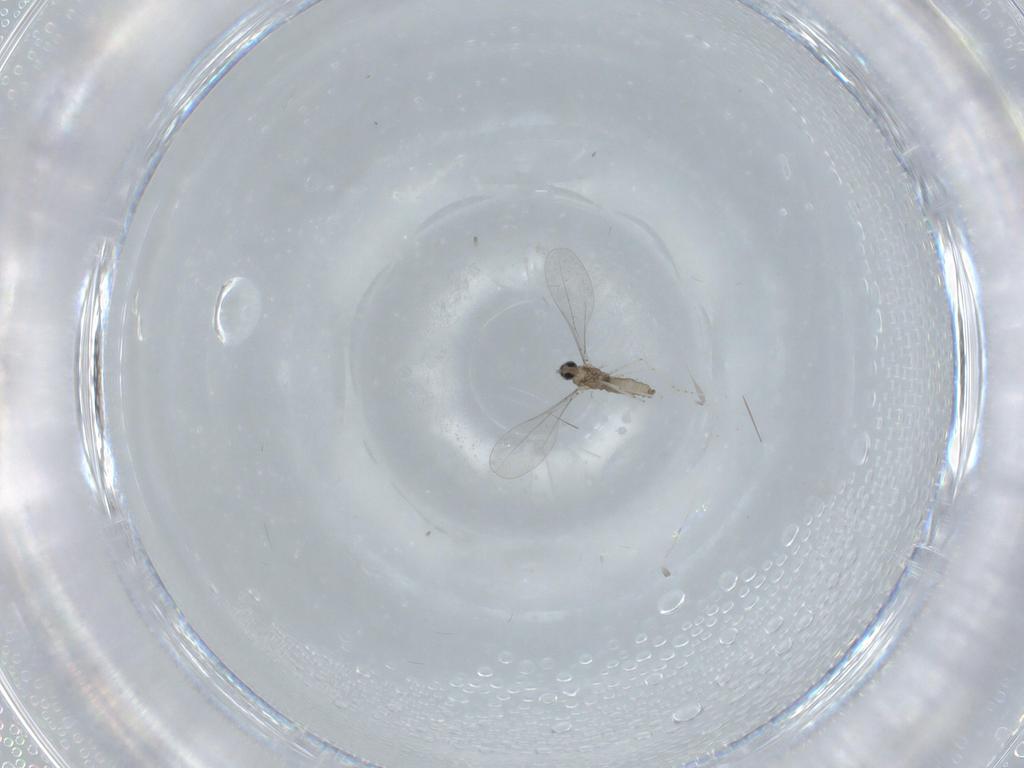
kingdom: Animalia
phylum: Arthropoda
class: Insecta
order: Diptera
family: Cecidomyiidae
